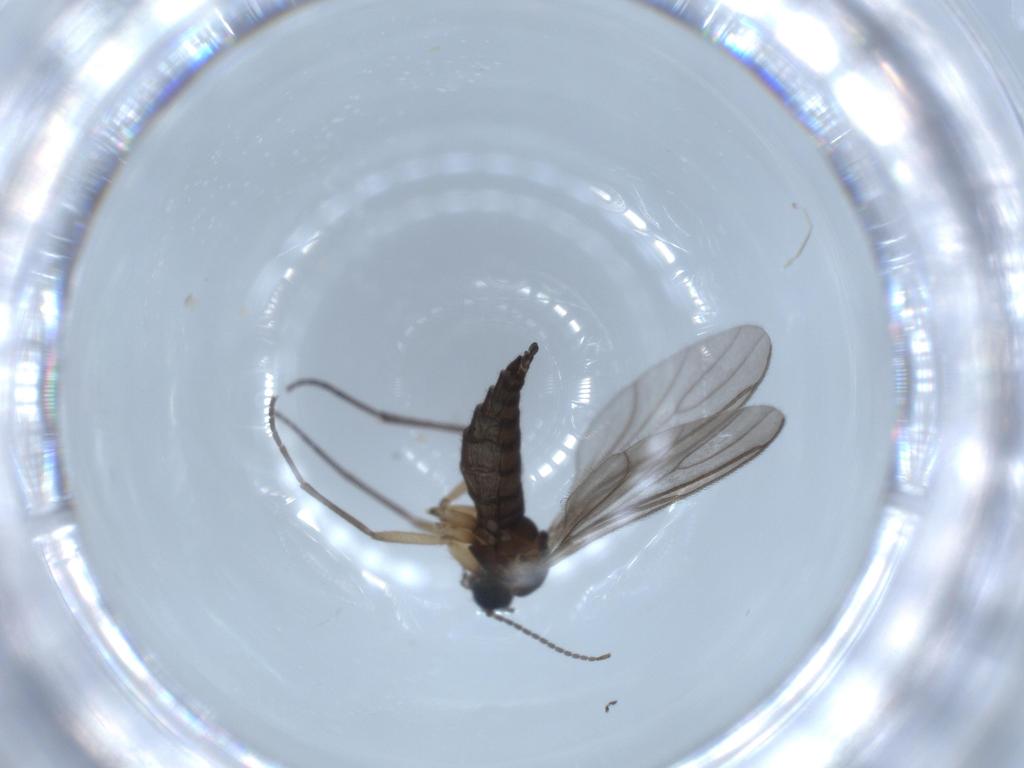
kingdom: Animalia
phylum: Arthropoda
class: Insecta
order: Diptera
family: Sciaridae
